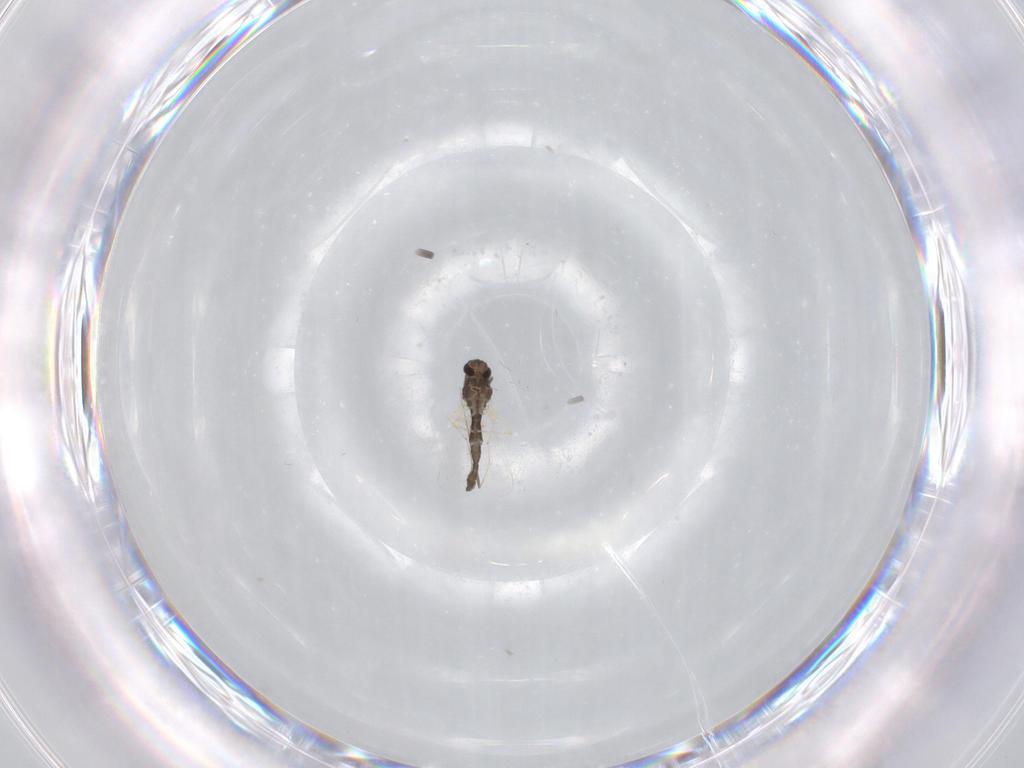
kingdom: Animalia
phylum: Arthropoda
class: Insecta
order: Diptera
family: Chironomidae
